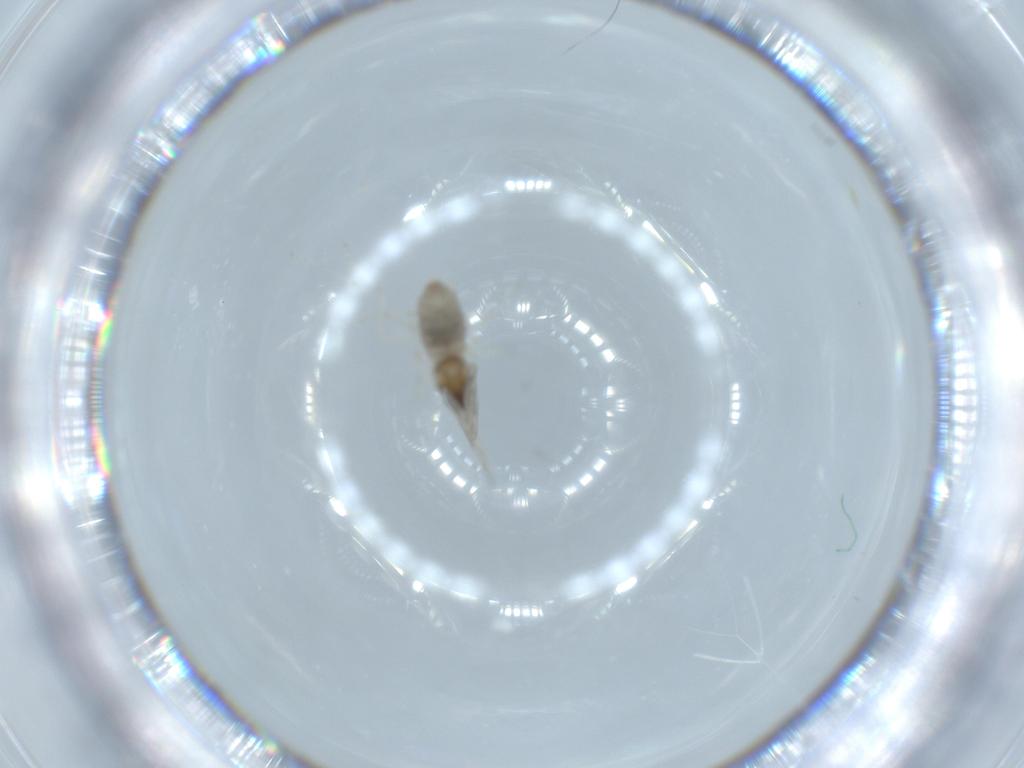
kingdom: Animalia
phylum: Arthropoda
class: Insecta
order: Diptera
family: Cecidomyiidae
